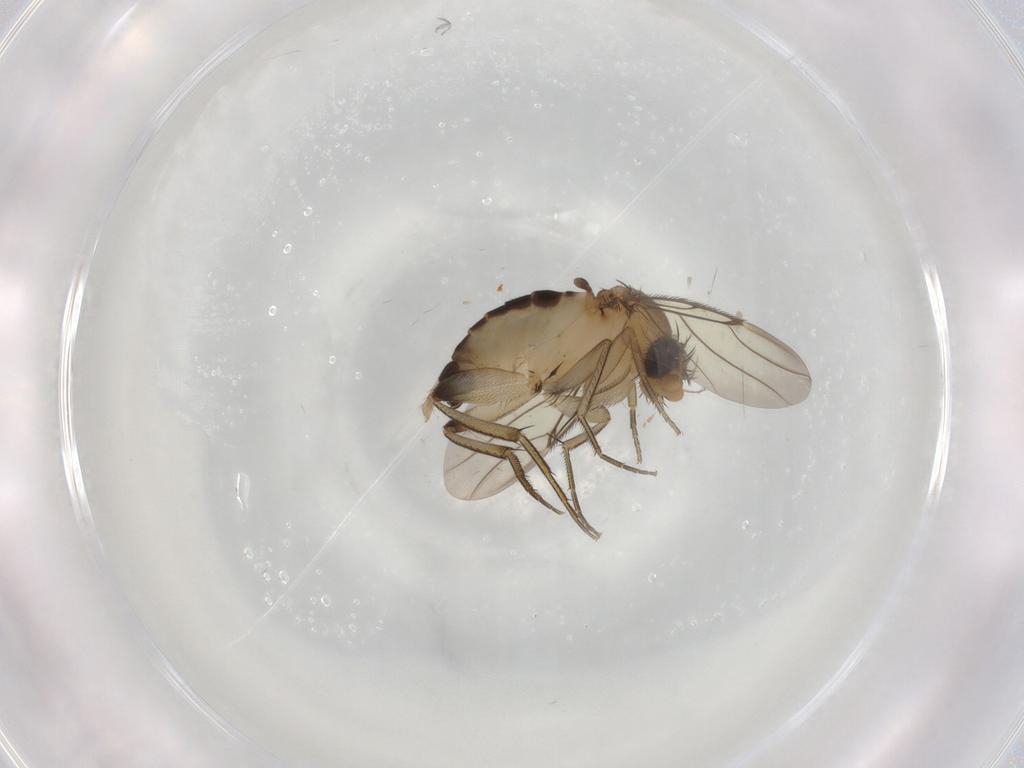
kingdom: Animalia
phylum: Arthropoda
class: Insecta
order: Diptera
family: Phoridae
